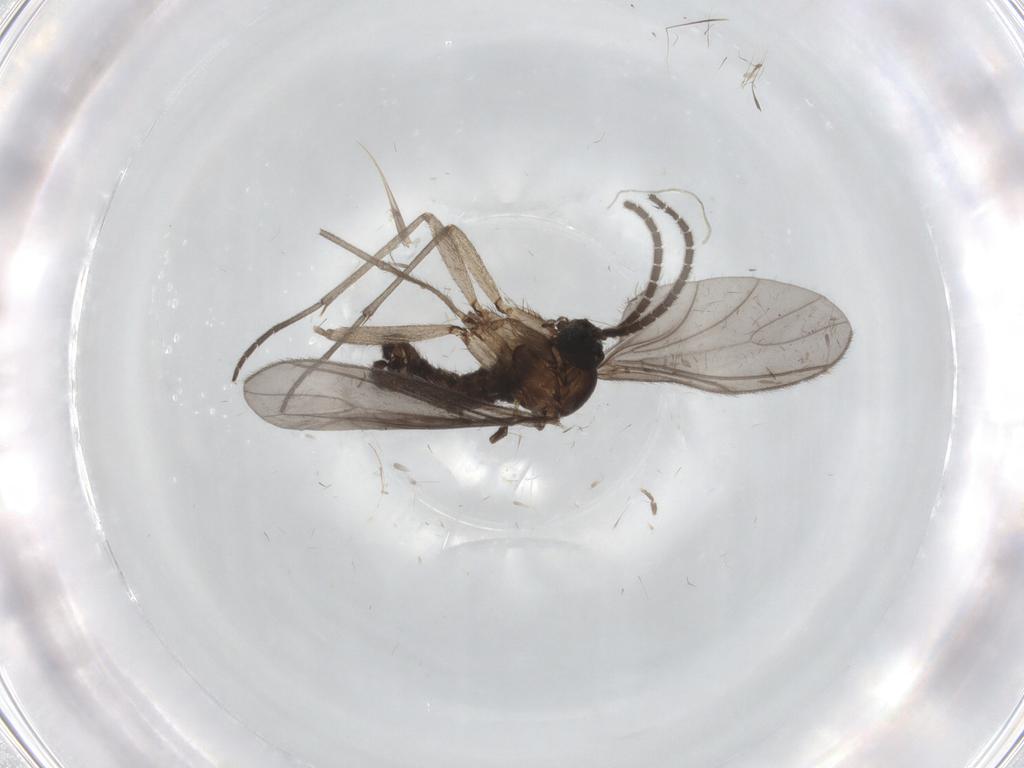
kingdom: Animalia
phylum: Arthropoda
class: Insecta
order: Diptera
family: Sciaridae
